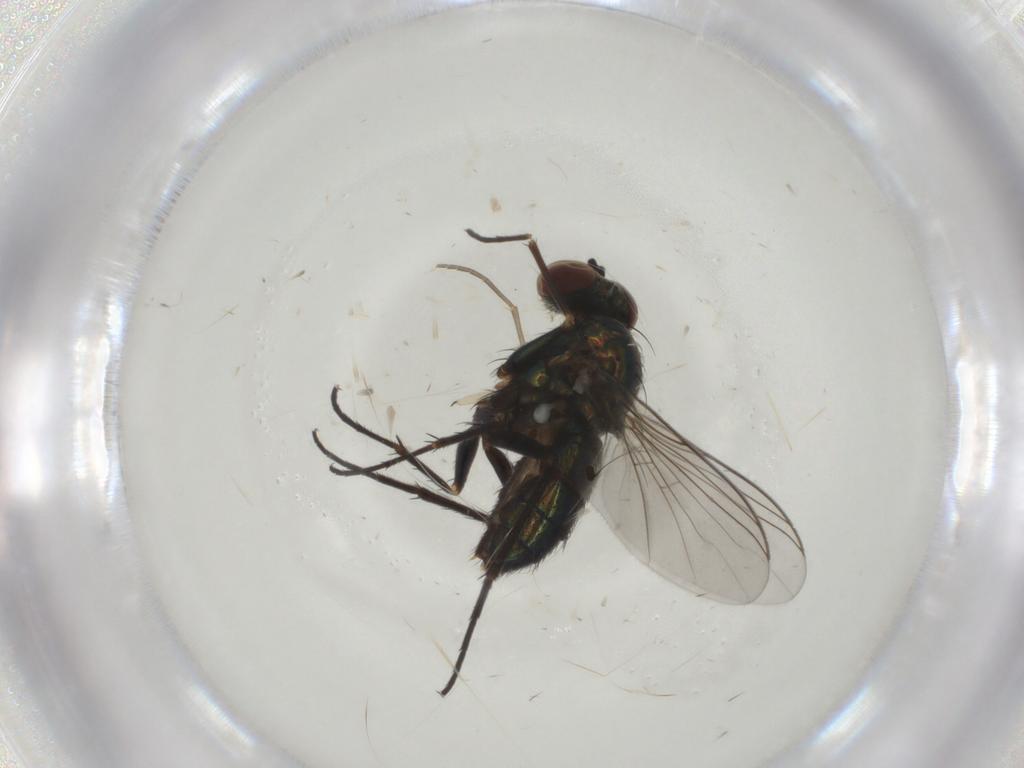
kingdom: Animalia
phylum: Arthropoda
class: Insecta
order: Diptera
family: Dolichopodidae
